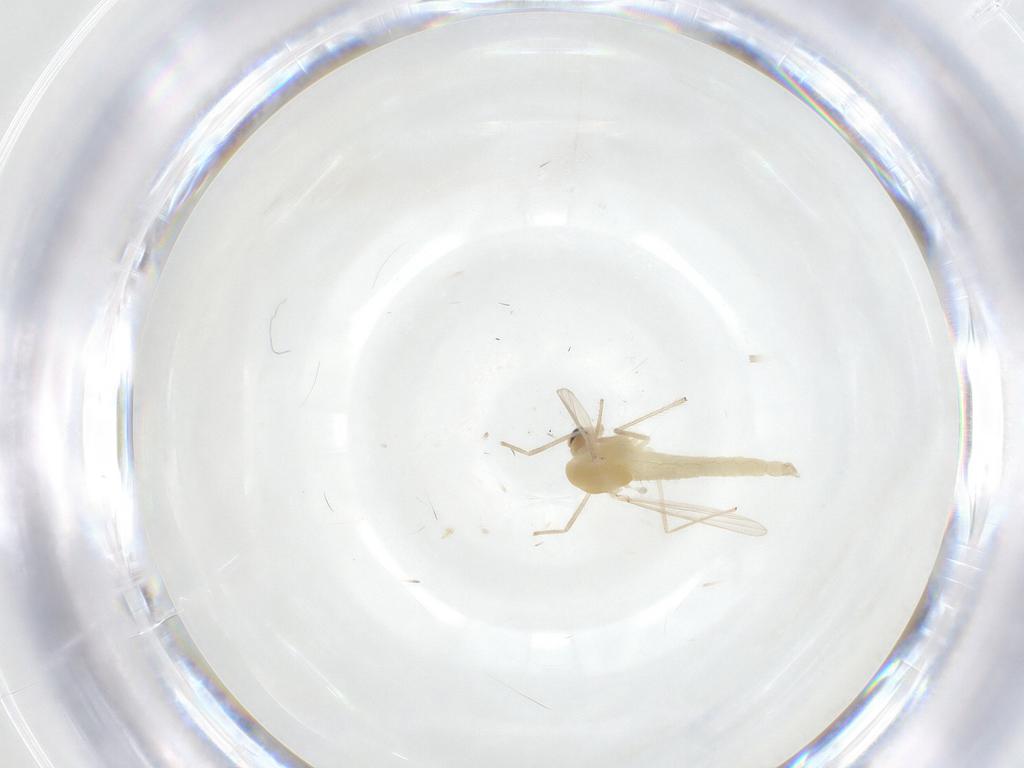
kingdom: Animalia
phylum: Arthropoda
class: Insecta
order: Diptera
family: Chironomidae
